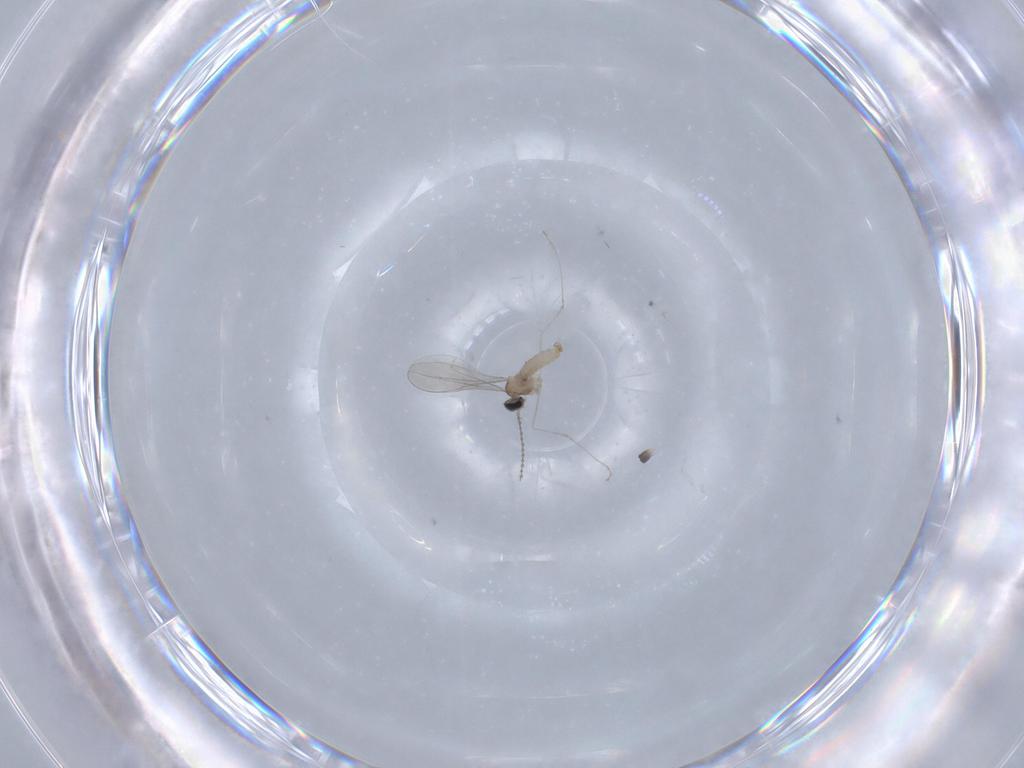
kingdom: Animalia
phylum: Arthropoda
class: Insecta
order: Diptera
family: Cecidomyiidae
